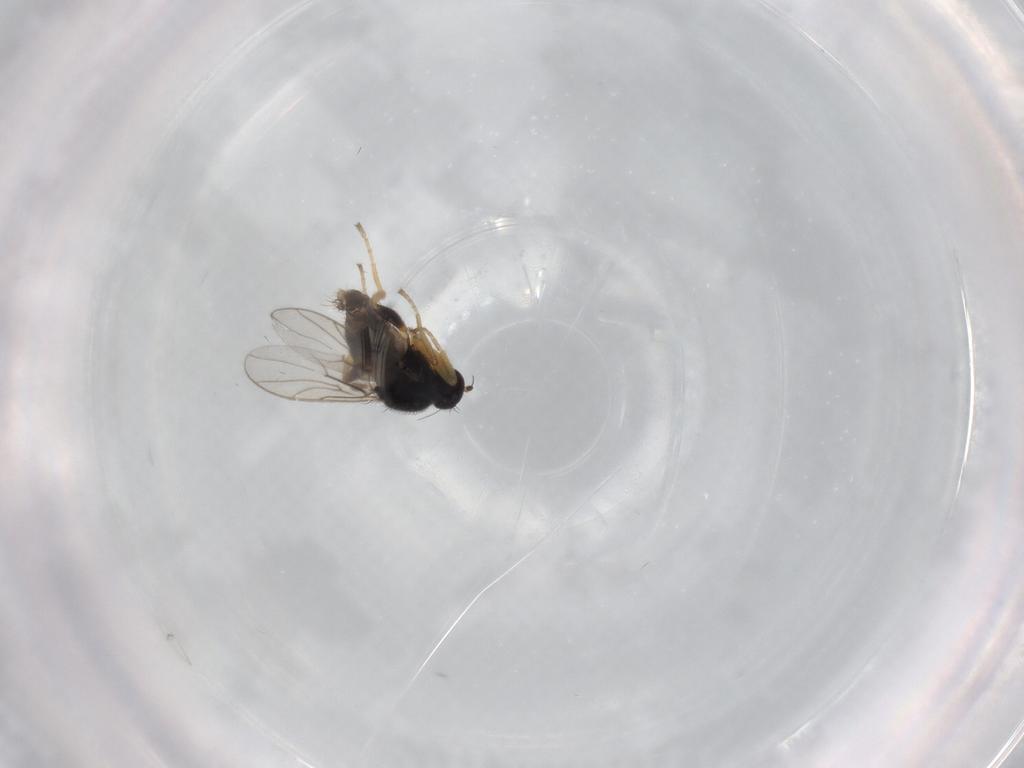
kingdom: Animalia
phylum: Arthropoda
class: Insecta
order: Diptera
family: Hybotidae
